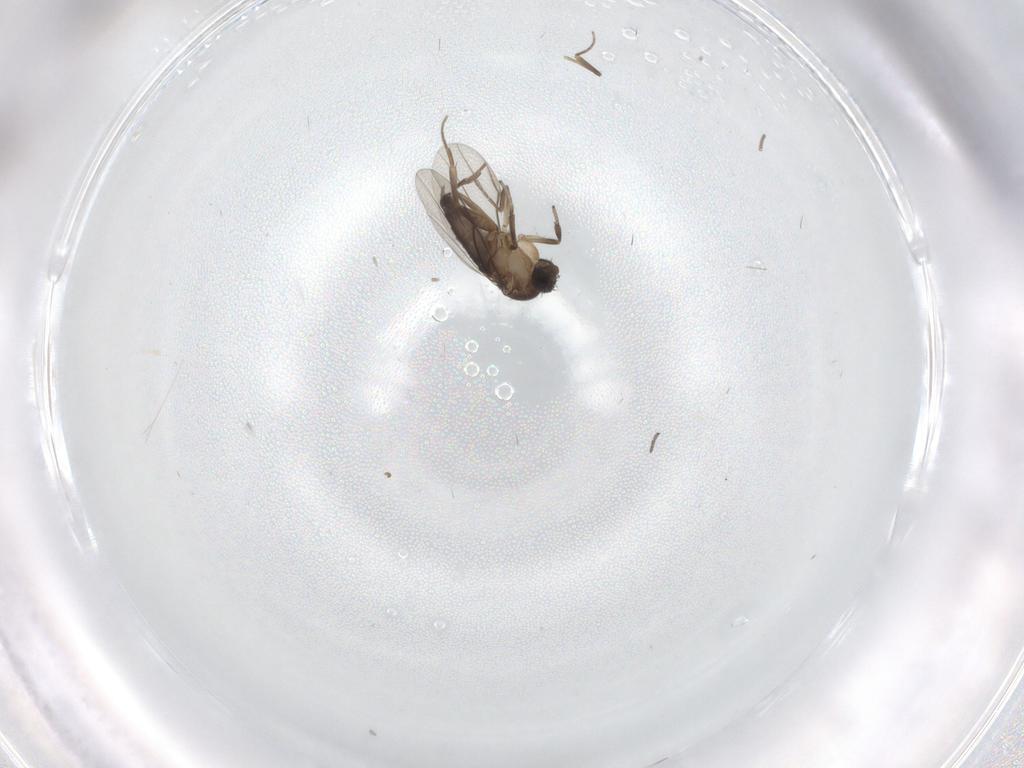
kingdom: Animalia
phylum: Arthropoda
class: Insecta
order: Diptera
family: Phoridae
